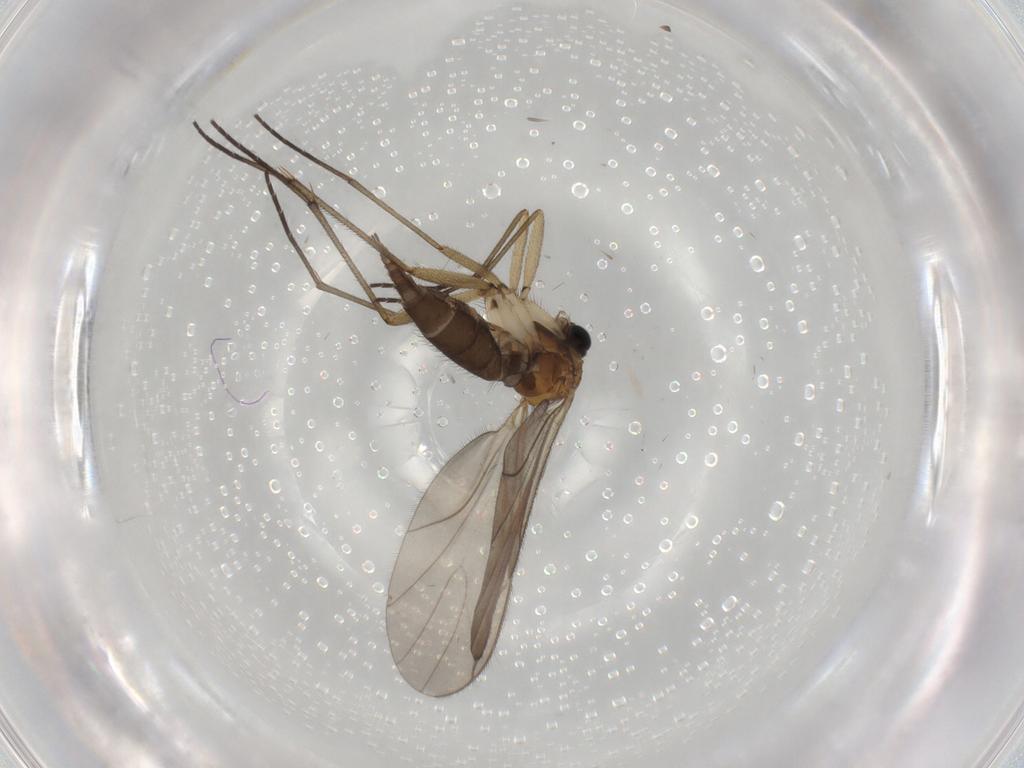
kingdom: Animalia
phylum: Arthropoda
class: Insecta
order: Diptera
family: Sciaridae
